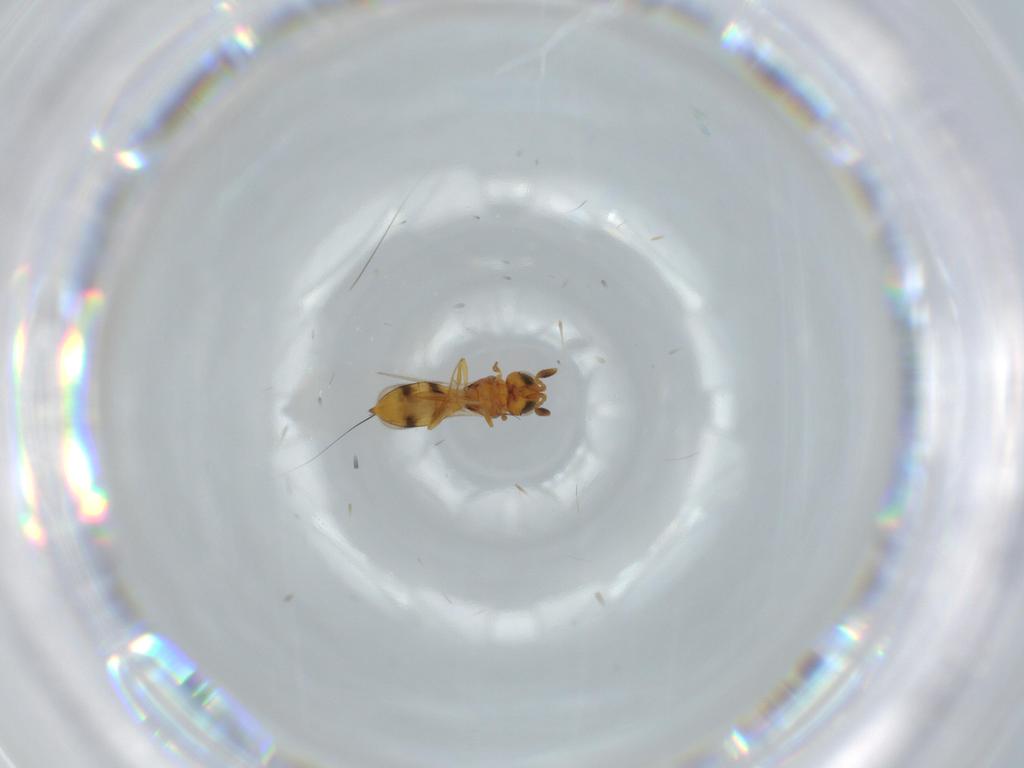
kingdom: Animalia
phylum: Arthropoda
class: Insecta
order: Hymenoptera
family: Scelionidae
